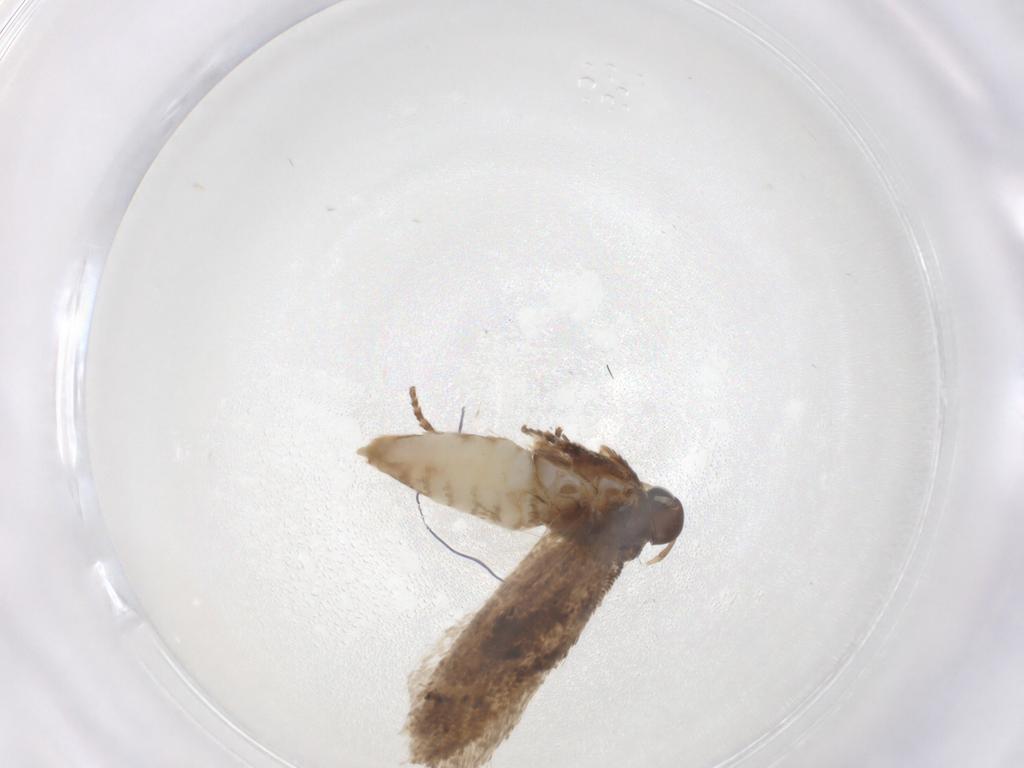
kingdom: Animalia
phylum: Arthropoda
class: Insecta
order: Lepidoptera
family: Gelechiidae
